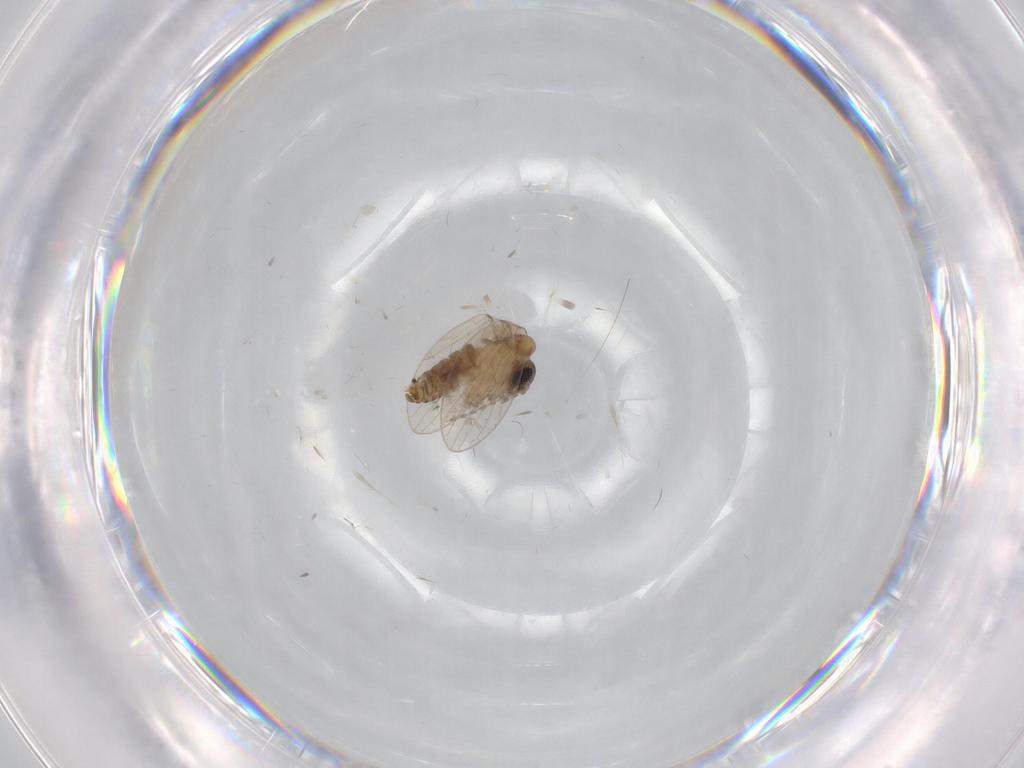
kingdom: Animalia
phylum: Arthropoda
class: Insecta
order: Diptera
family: Psychodidae
